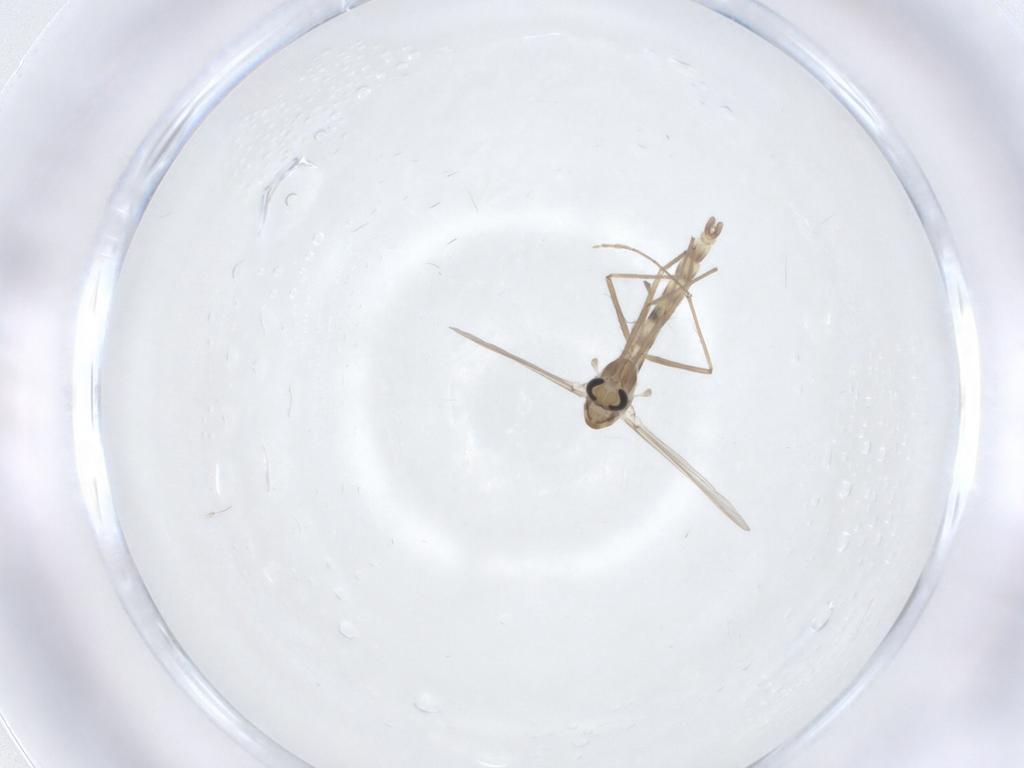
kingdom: Animalia
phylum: Arthropoda
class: Insecta
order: Diptera
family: Chironomidae
